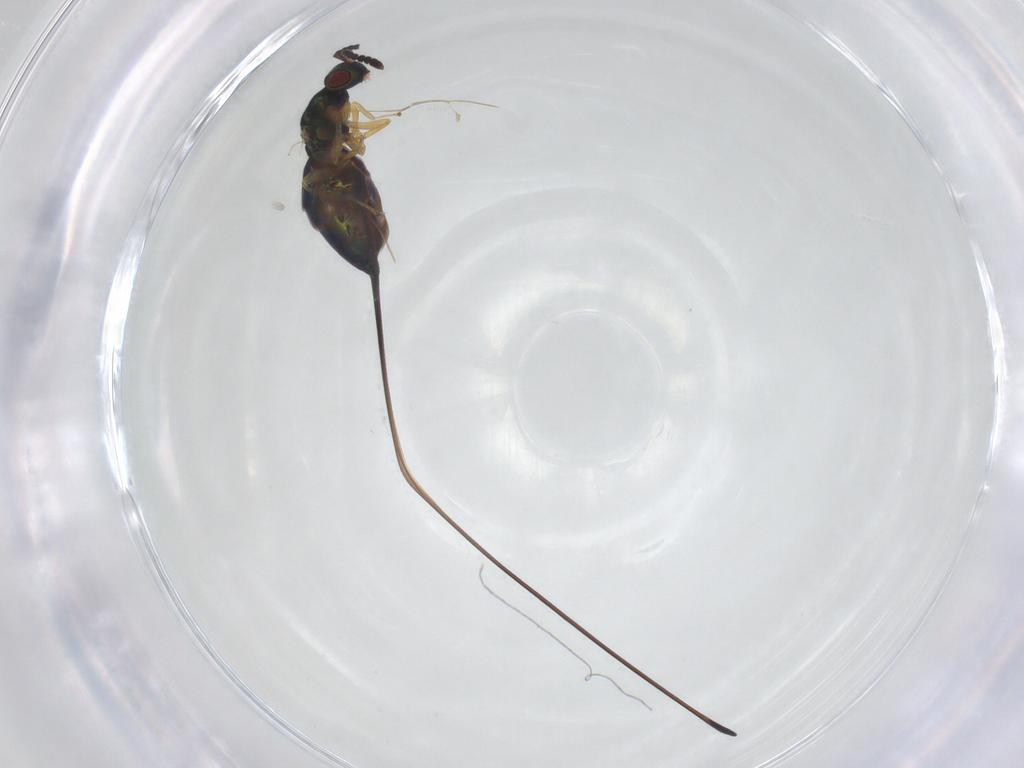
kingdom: Animalia
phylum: Arthropoda
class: Insecta
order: Hymenoptera
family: Pteromalidae
